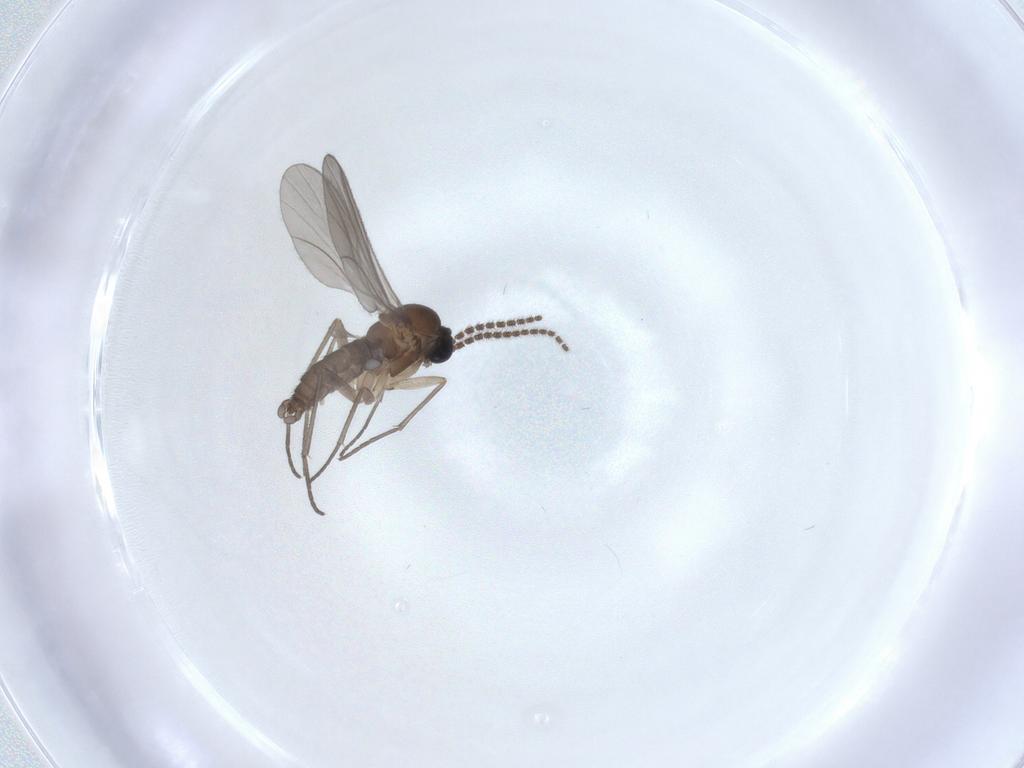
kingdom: Animalia
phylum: Arthropoda
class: Insecta
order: Diptera
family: Sciaridae
